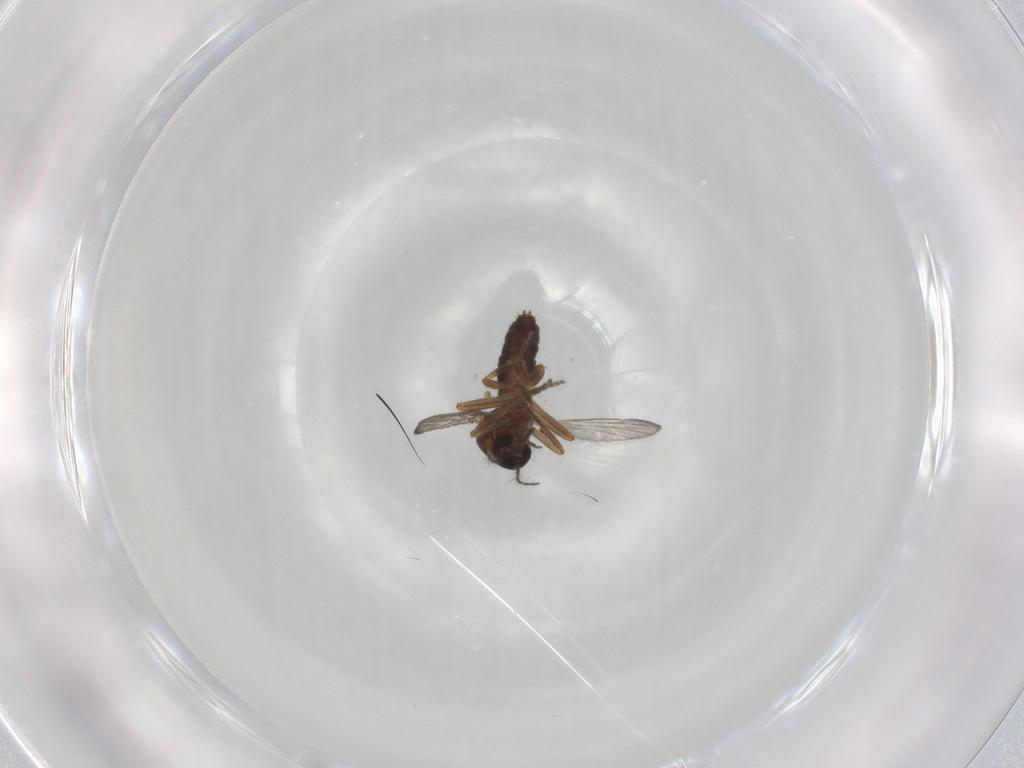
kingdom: Animalia
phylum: Arthropoda
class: Insecta
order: Diptera
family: Ceratopogonidae
